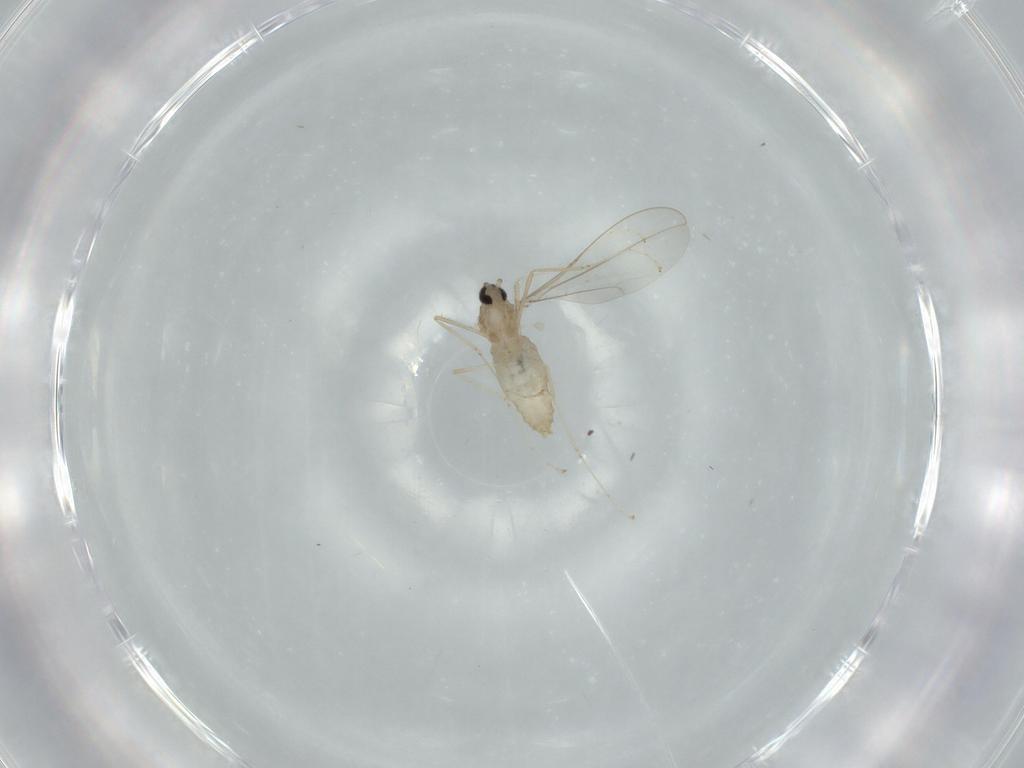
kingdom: Animalia
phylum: Arthropoda
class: Insecta
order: Diptera
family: Cecidomyiidae
